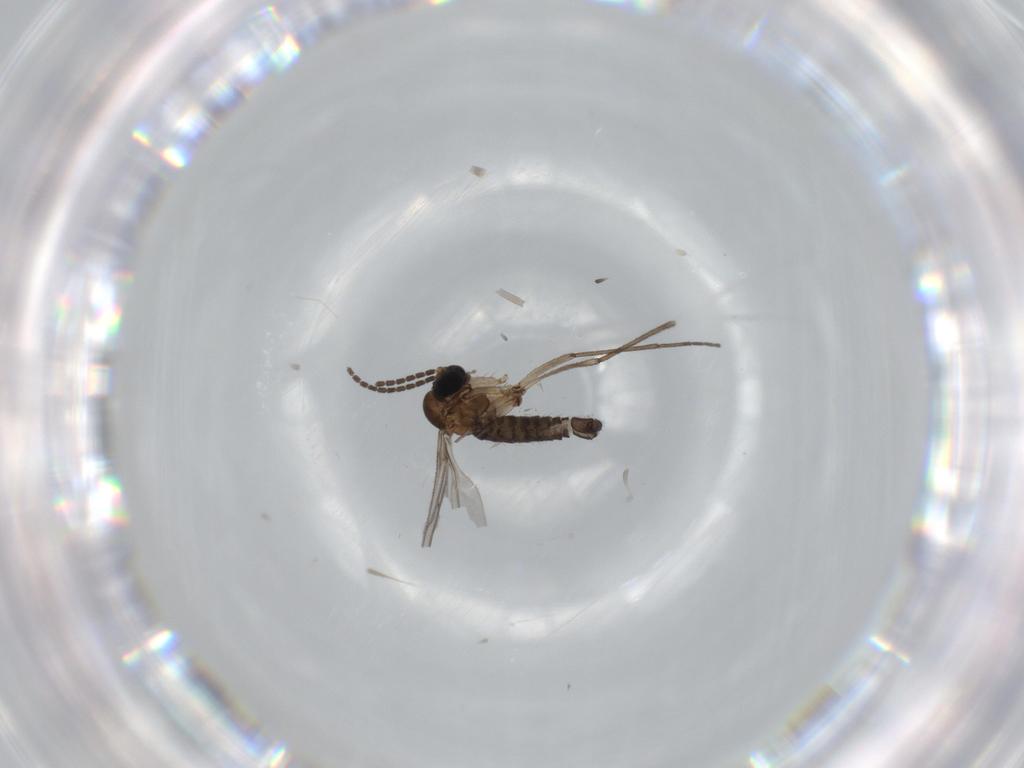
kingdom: Animalia
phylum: Arthropoda
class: Insecta
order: Diptera
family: Sciaridae
